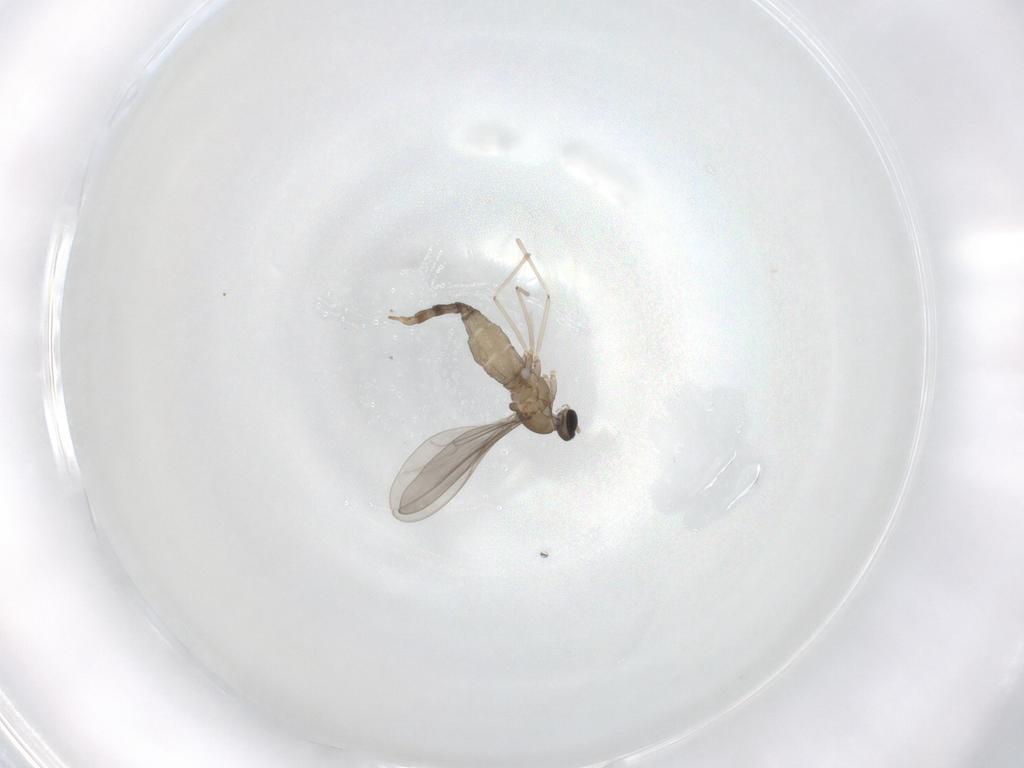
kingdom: Animalia
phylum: Arthropoda
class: Insecta
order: Diptera
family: Cecidomyiidae
